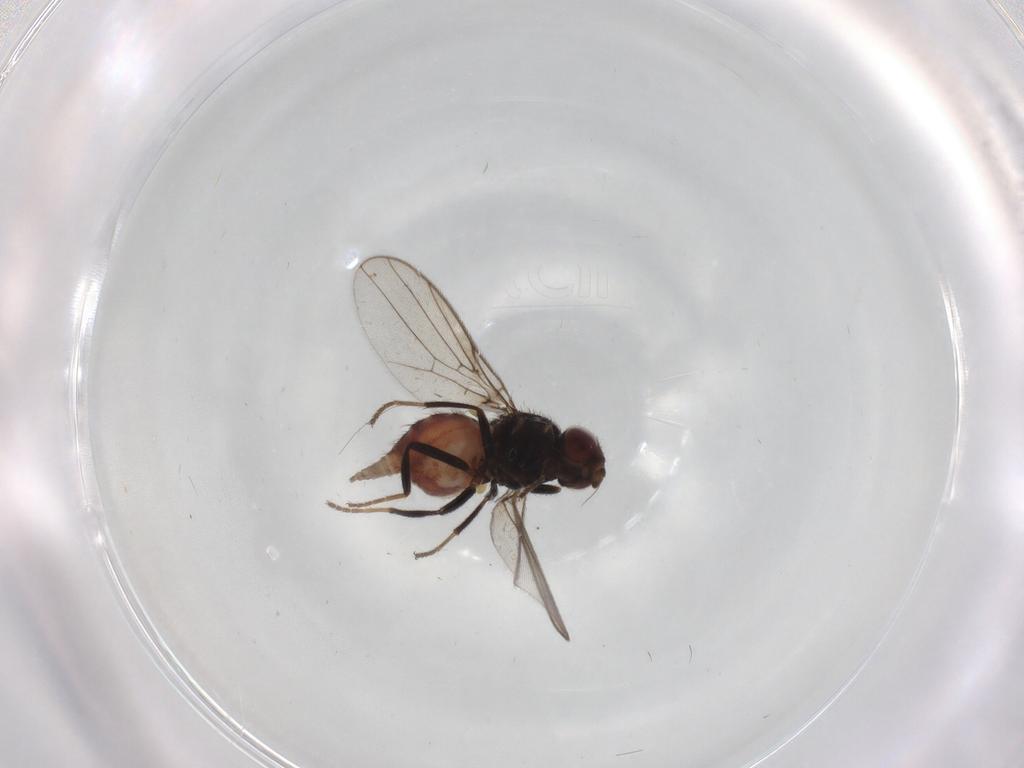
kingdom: Animalia
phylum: Arthropoda
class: Insecta
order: Diptera
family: Chloropidae
